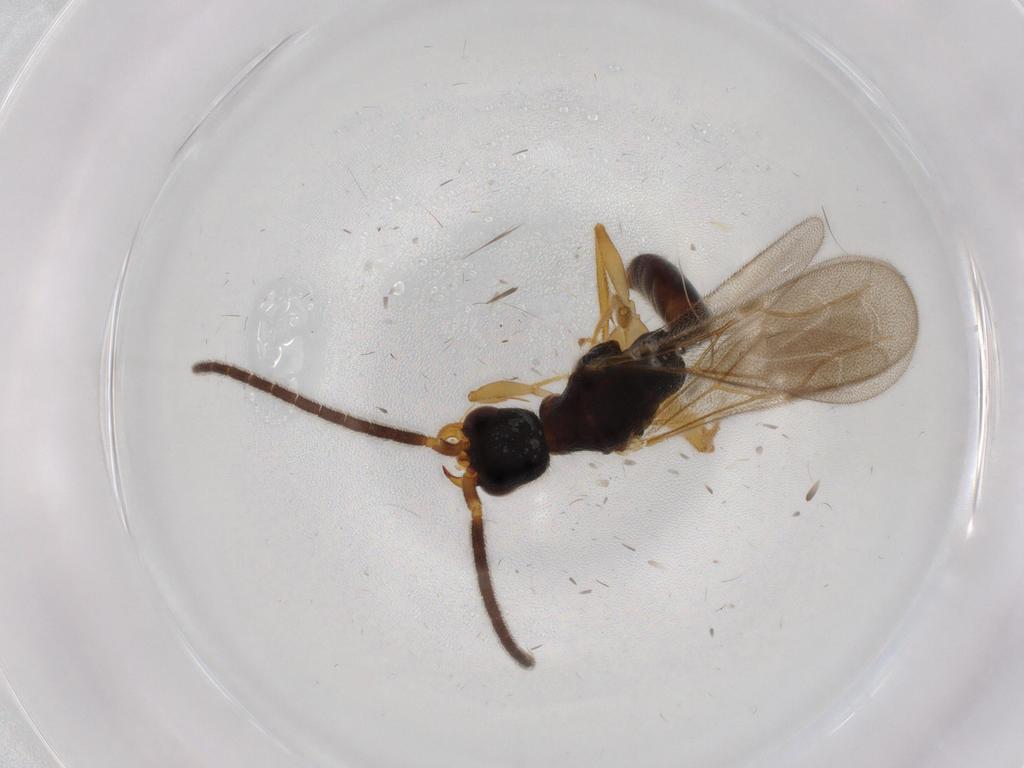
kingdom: Animalia
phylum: Arthropoda
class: Insecta
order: Hymenoptera
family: Bethylidae
